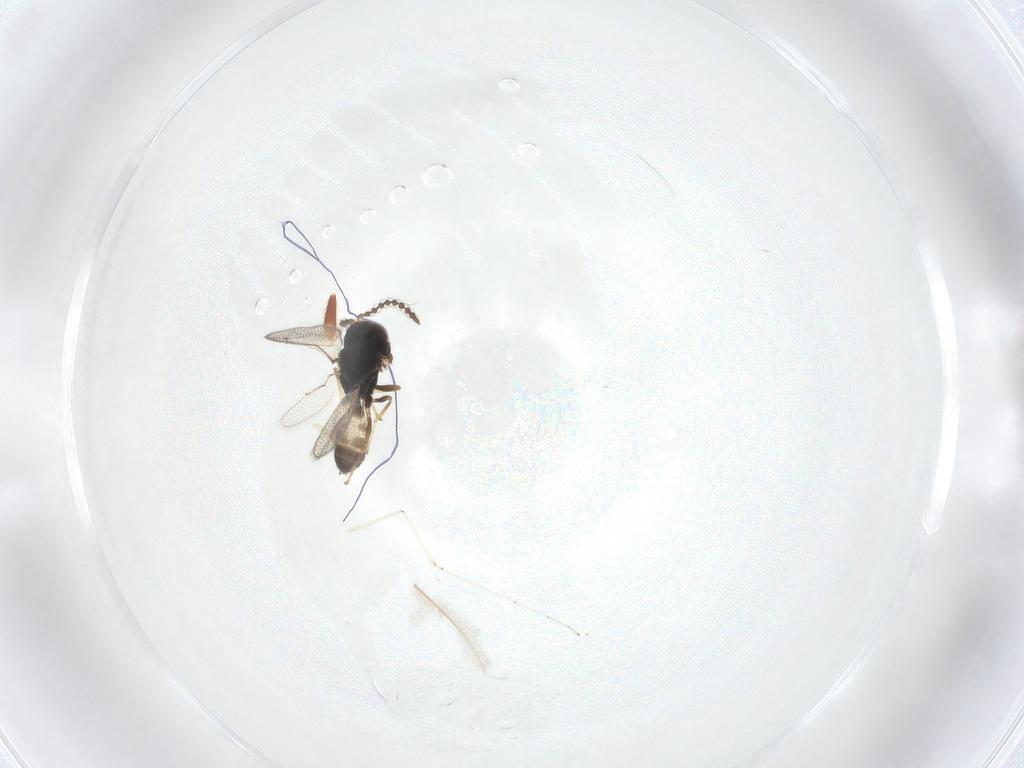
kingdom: Animalia
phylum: Arthropoda
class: Insecta
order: Hymenoptera
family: Pteromalidae
